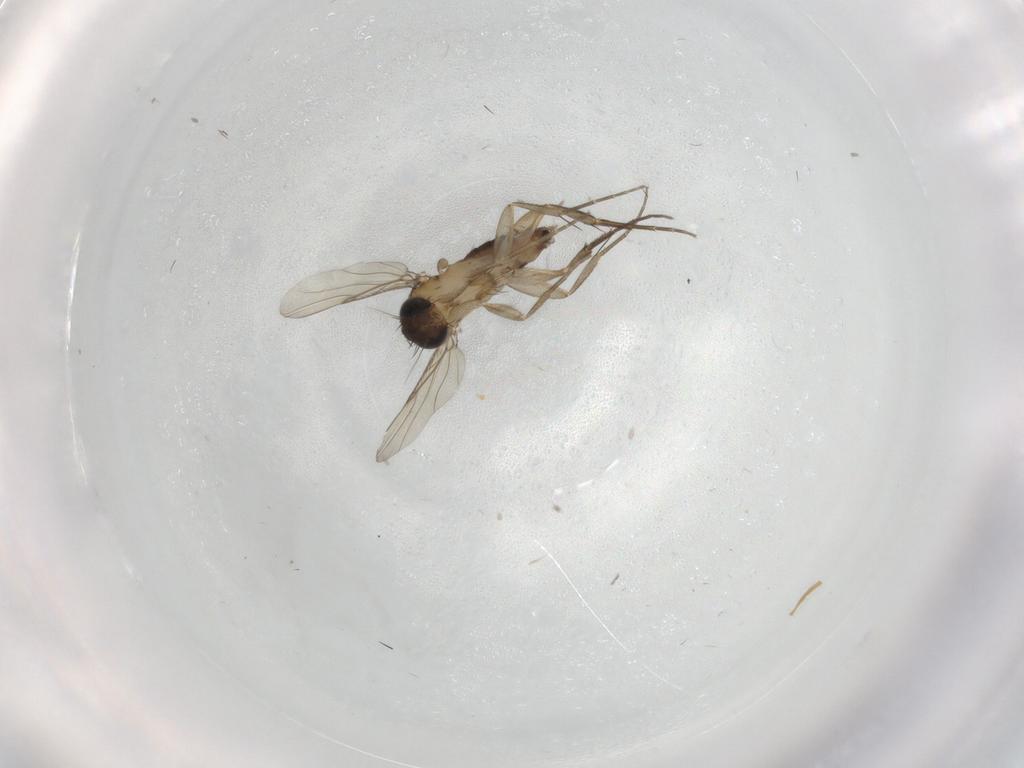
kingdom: Animalia
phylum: Arthropoda
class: Insecta
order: Diptera
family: Phoridae
